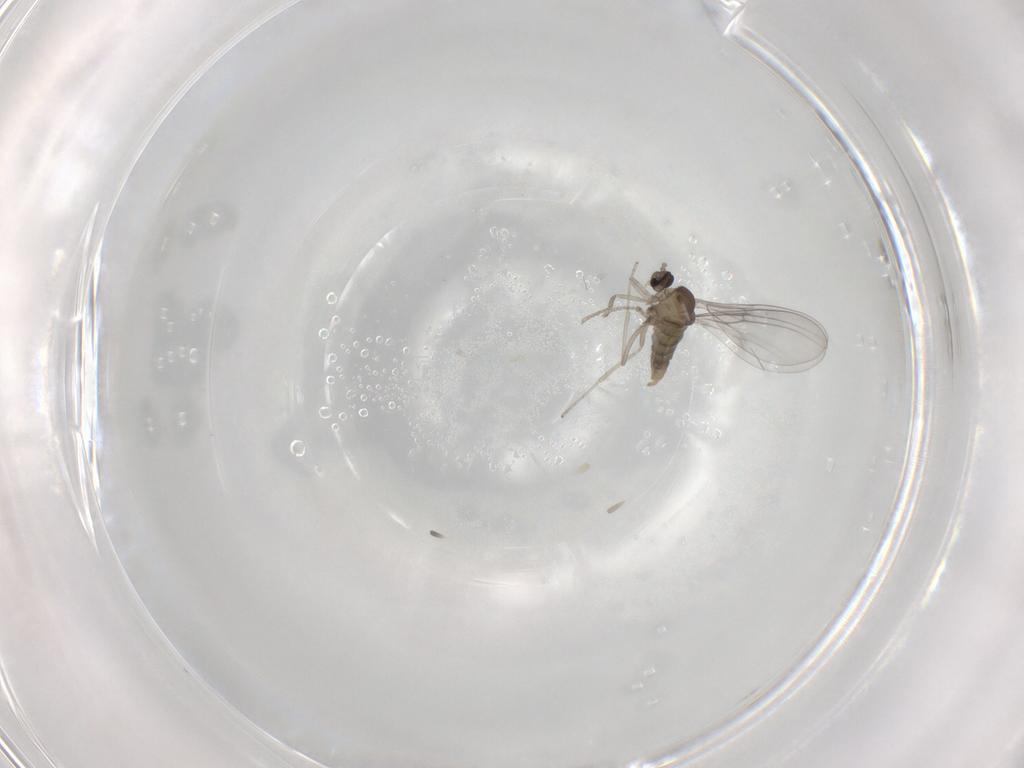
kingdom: Animalia
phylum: Arthropoda
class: Insecta
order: Diptera
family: Cecidomyiidae
